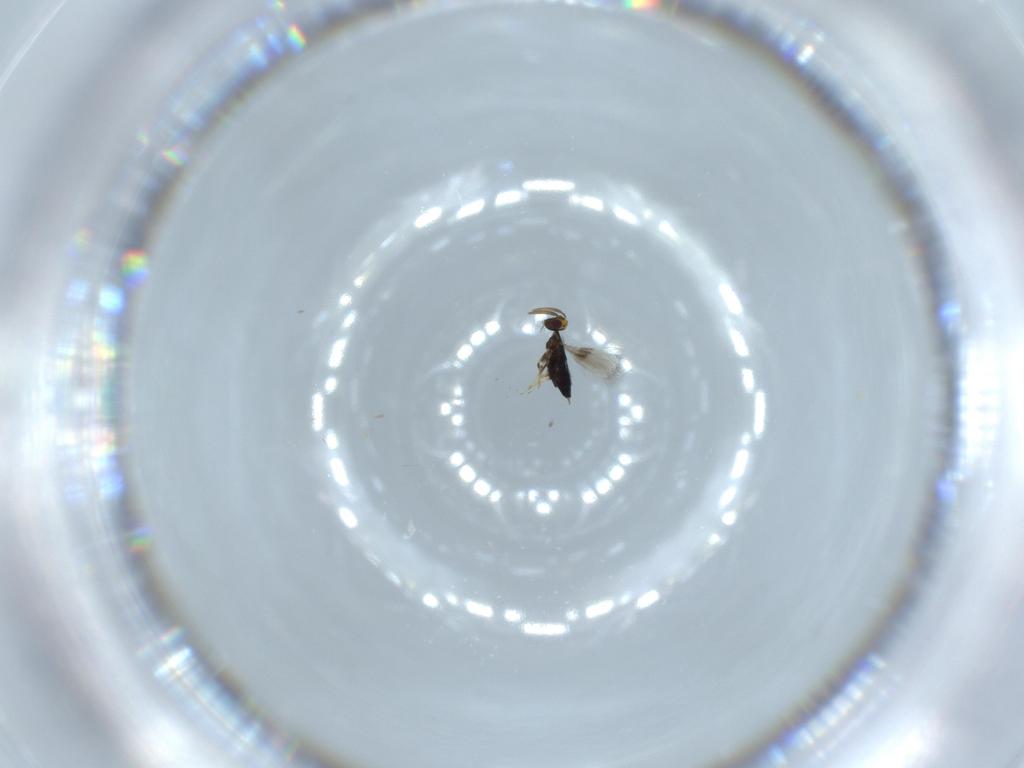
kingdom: Animalia
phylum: Arthropoda
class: Insecta
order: Hymenoptera
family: Signiphoridae
